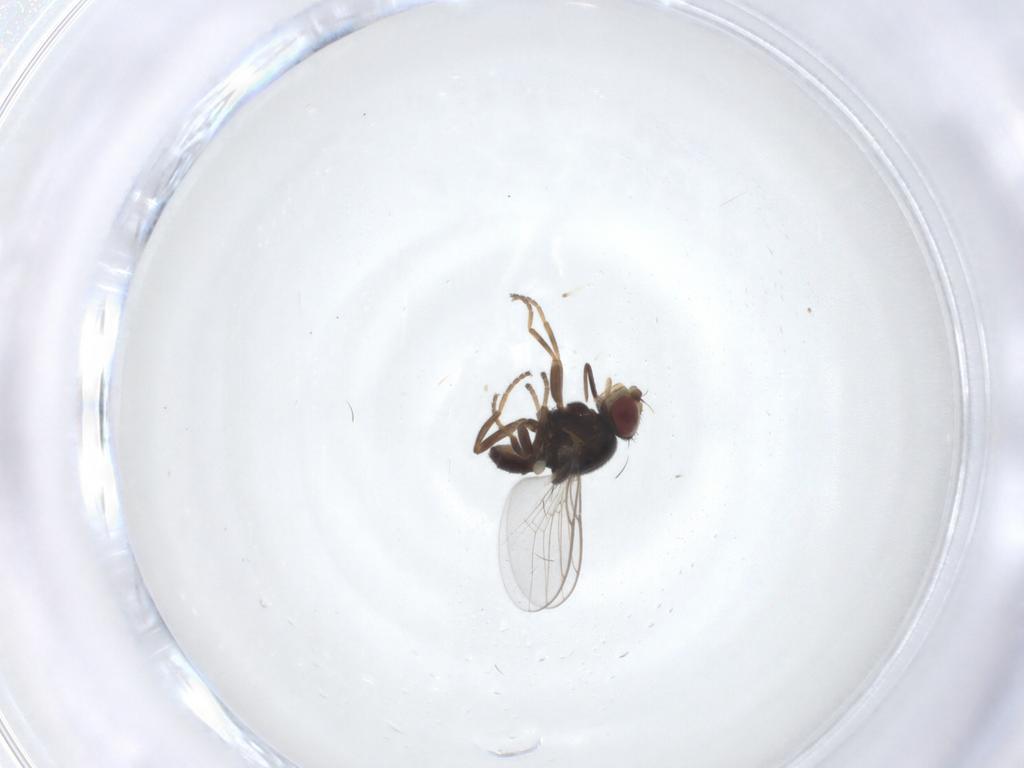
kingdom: Animalia
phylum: Arthropoda
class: Insecta
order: Diptera
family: Chloropidae
